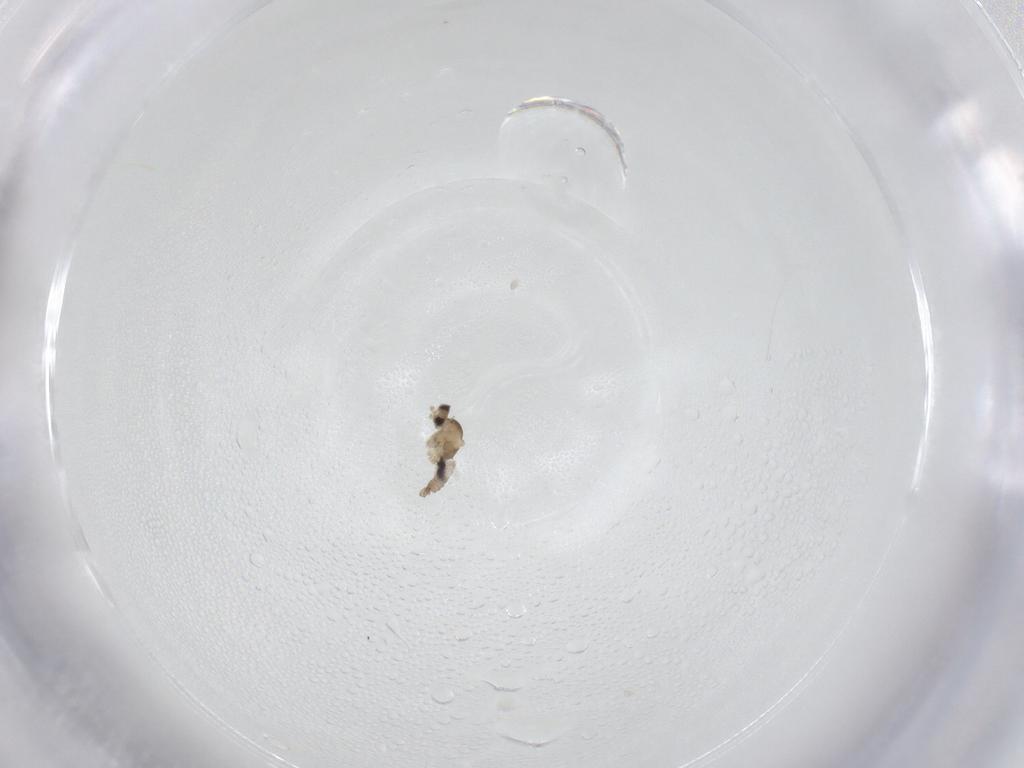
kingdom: Animalia
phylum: Arthropoda
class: Insecta
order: Diptera
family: Cecidomyiidae
